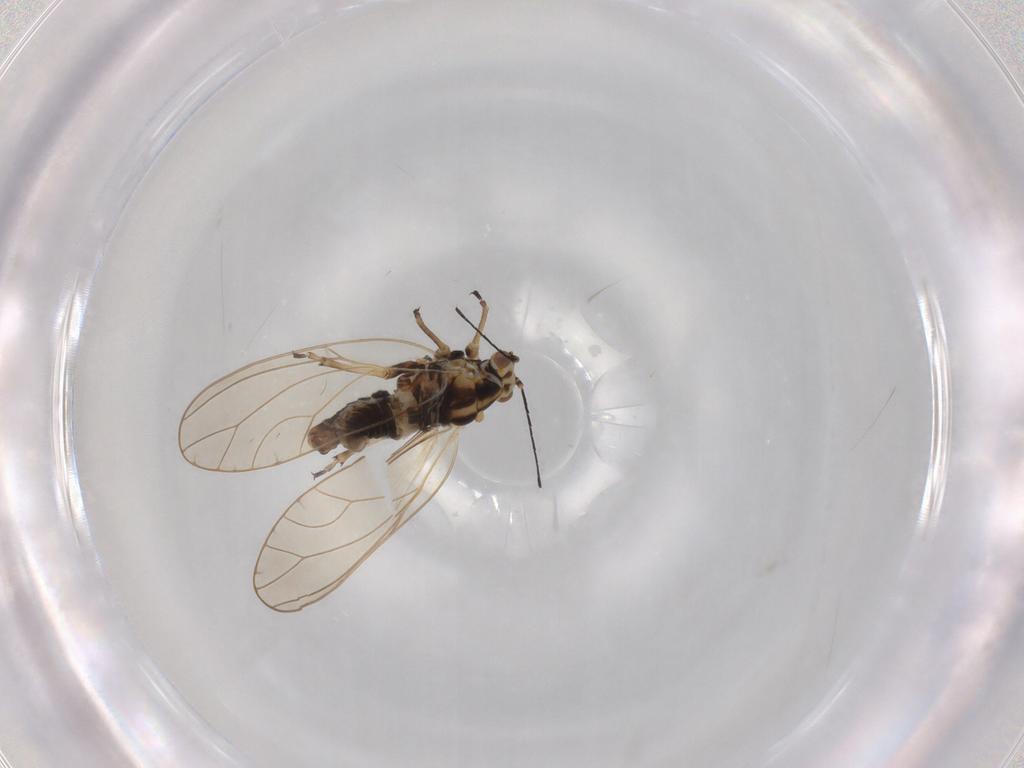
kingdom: Animalia
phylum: Arthropoda
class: Insecta
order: Hemiptera
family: Triozidae
